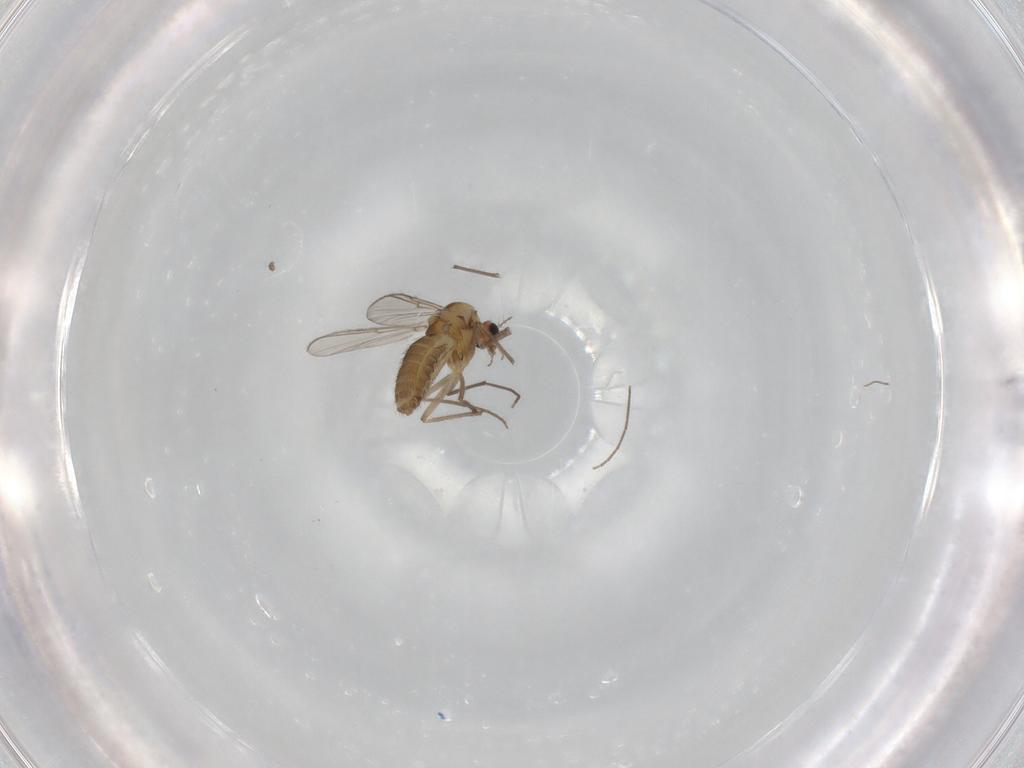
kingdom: Animalia
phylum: Arthropoda
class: Insecta
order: Diptera
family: Chironomidae
